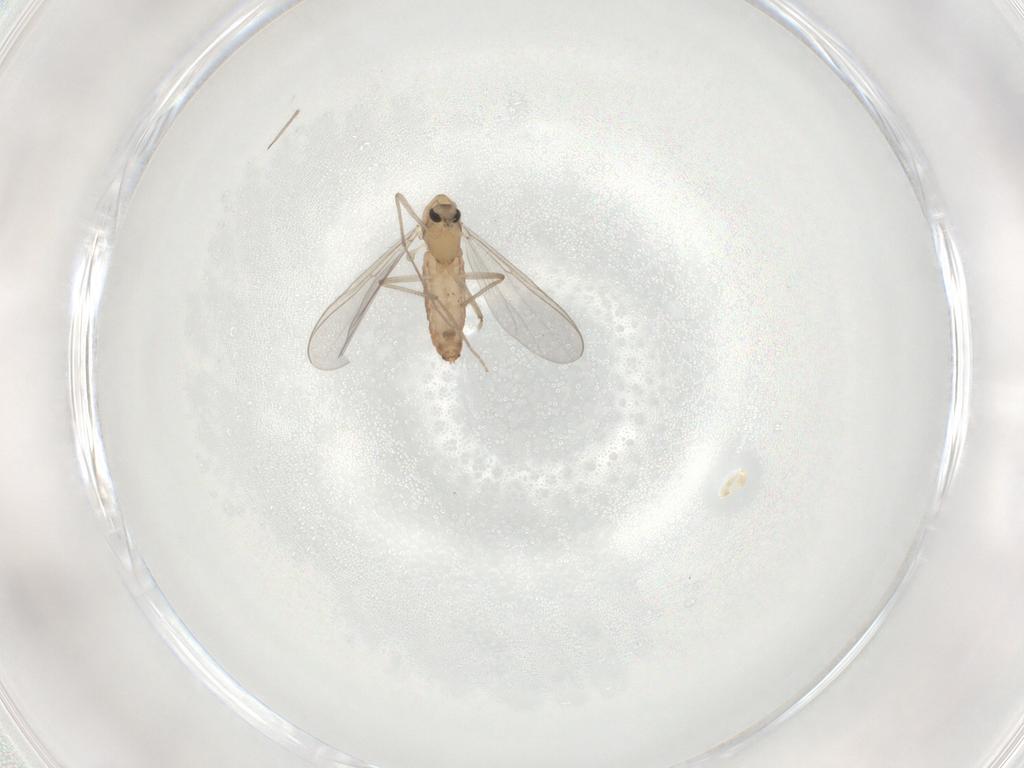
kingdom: Animalia
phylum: Arthropoda
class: Insecta
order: Diptera
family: Chironomidae
